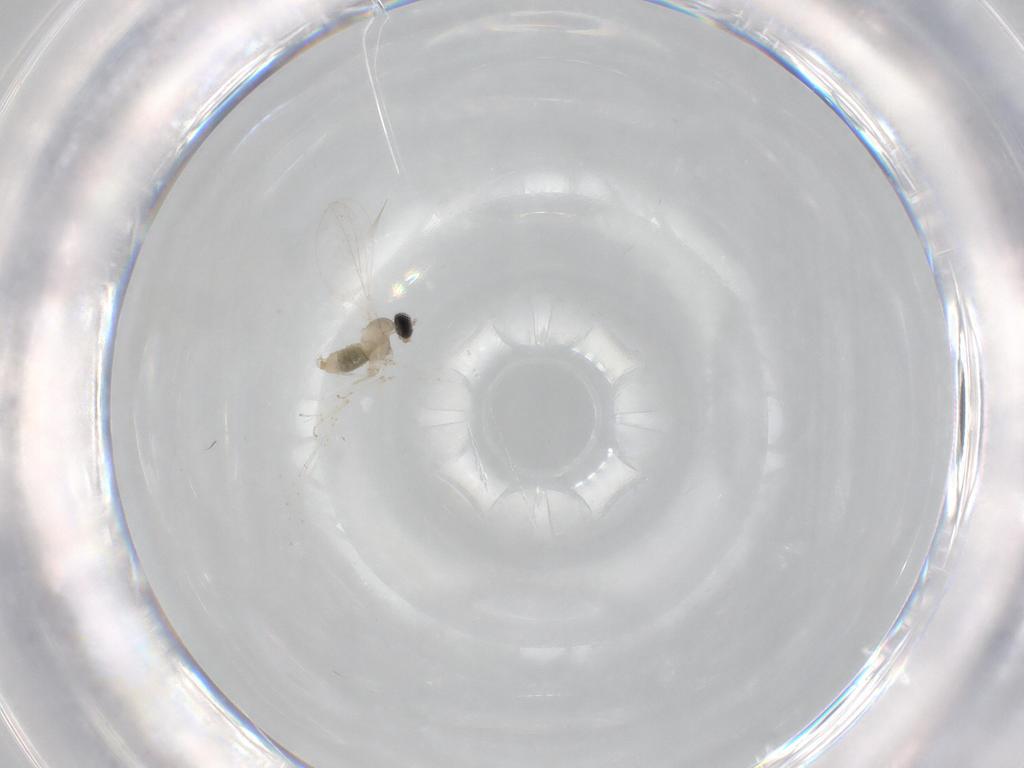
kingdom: Animalia
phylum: Arthropoda
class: Insecta
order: Diptera
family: Cecidomyiidae
